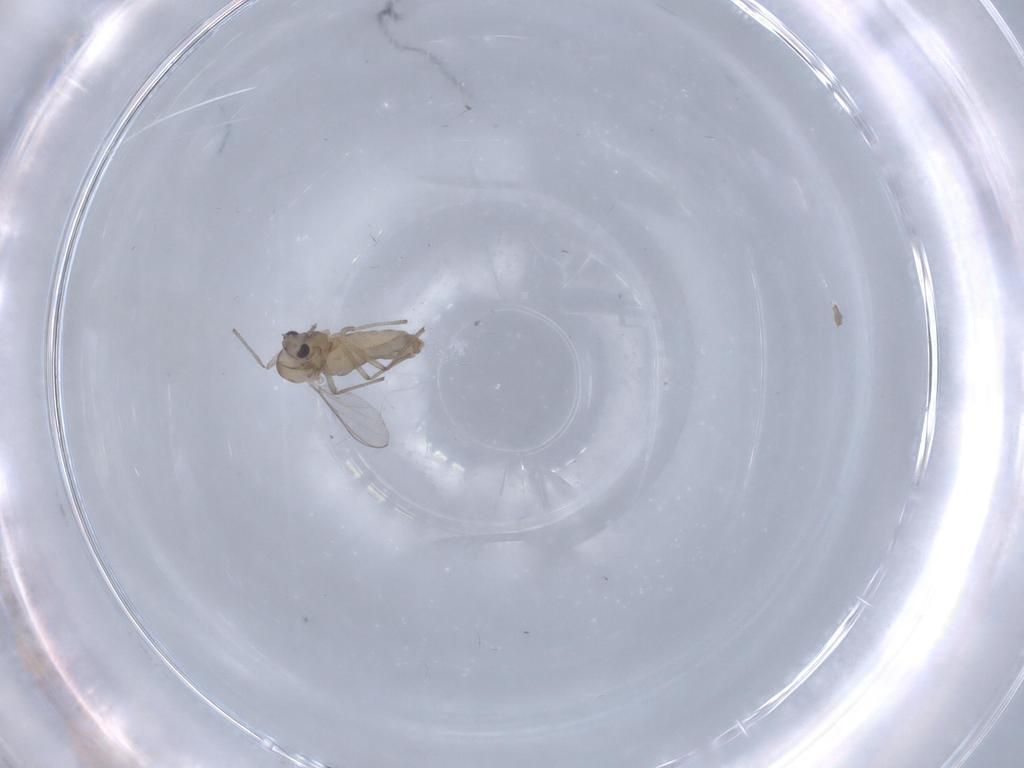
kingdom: Animalia
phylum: Arthropoda
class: Insecta
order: Diptera
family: Chironomidae
